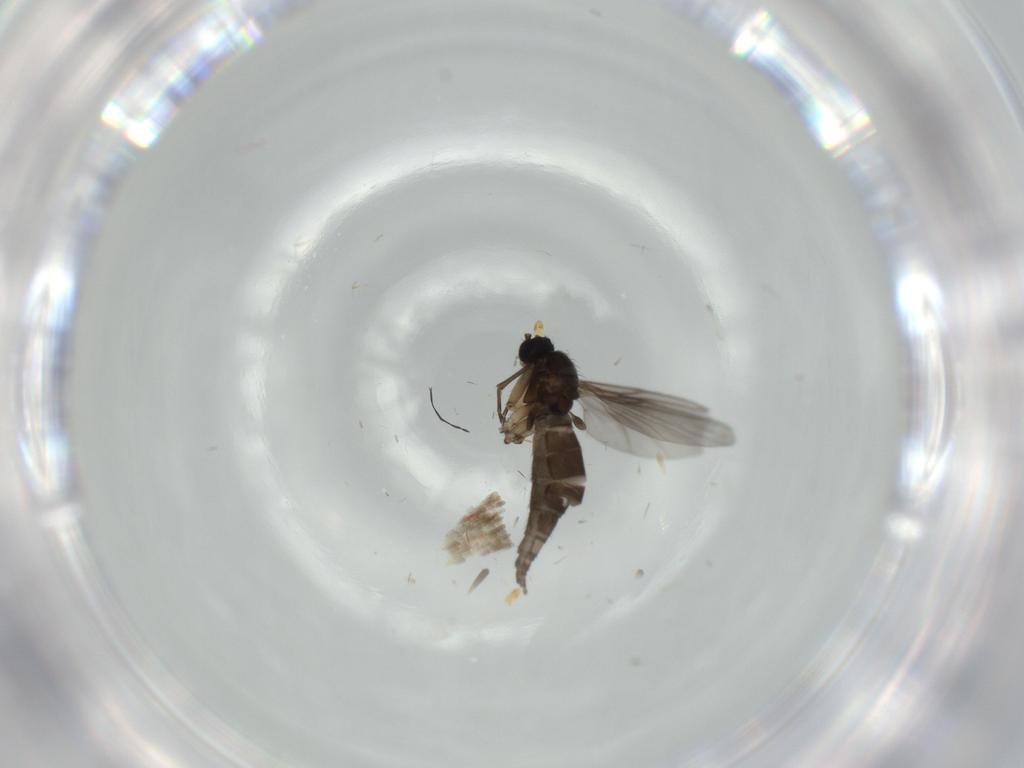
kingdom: Animalia
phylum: Arthropoda
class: Insecta
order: Diptera
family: Sciaridae
